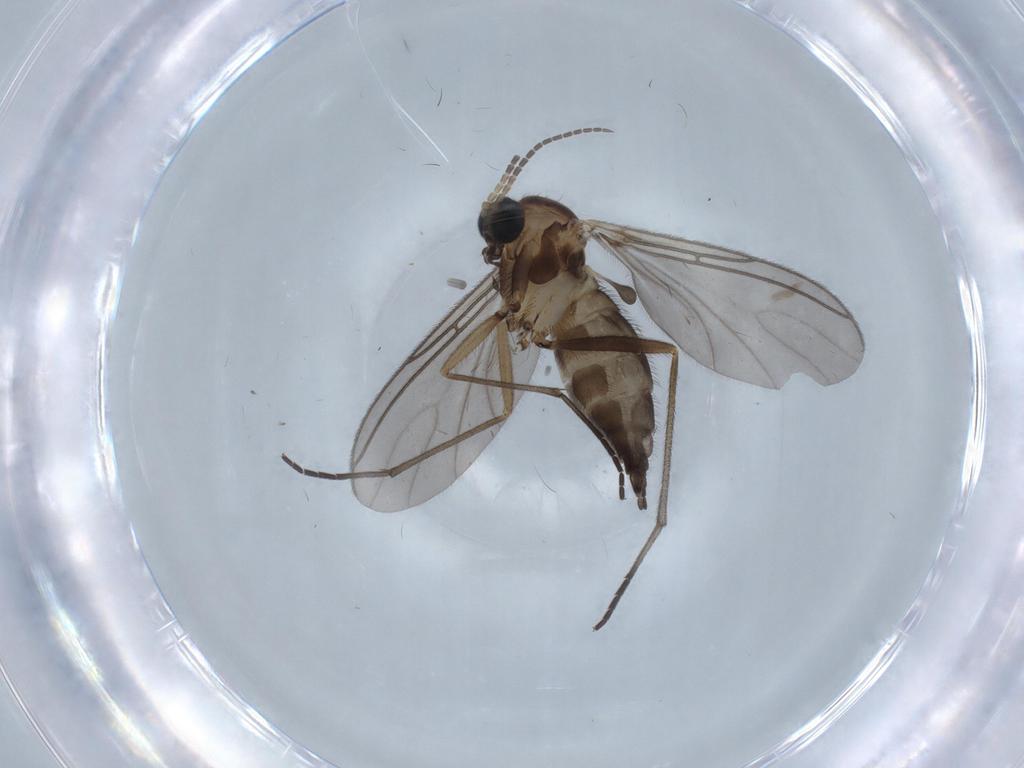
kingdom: Animalia
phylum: Arthropoda
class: Insecta
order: Diptera
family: Sciaridae
